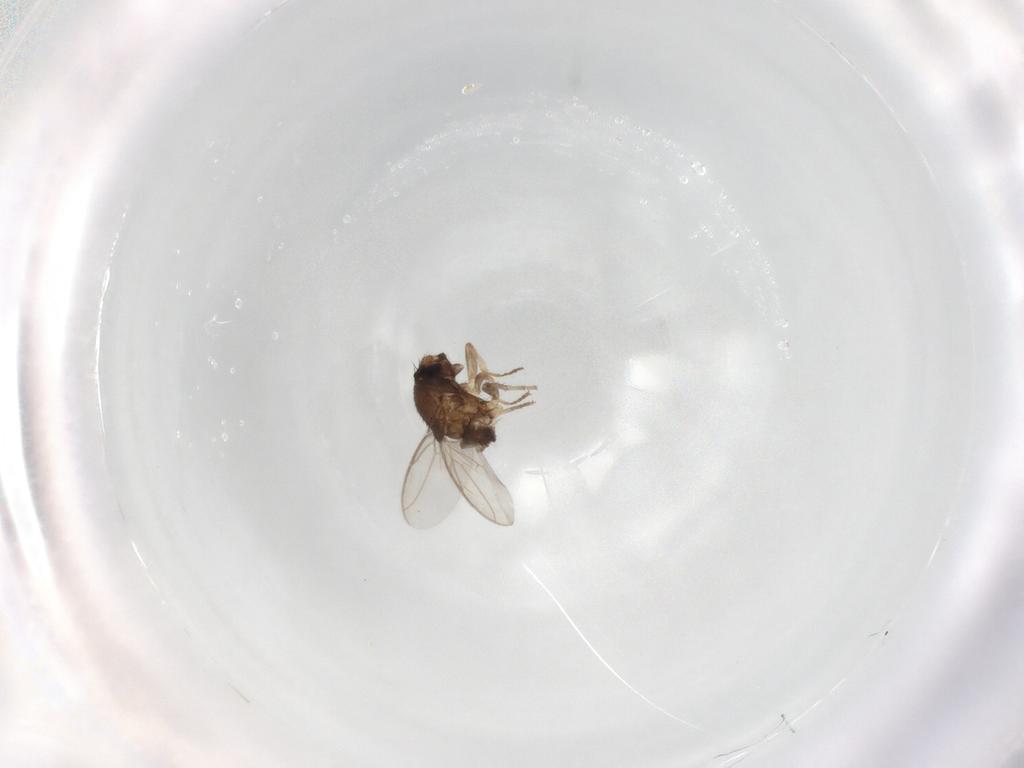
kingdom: Animalia
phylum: Arthropoda
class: Insecta
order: Diptera
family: Sphaeroceridae
